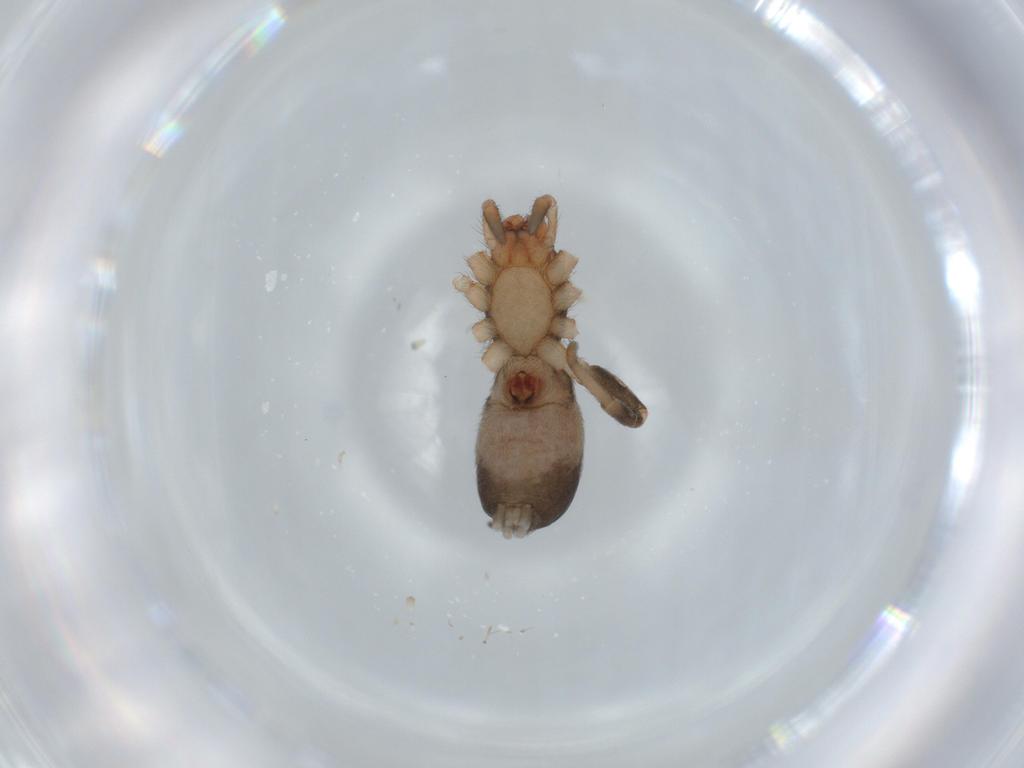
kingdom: Animalia
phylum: Arthropoda
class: Arachnida
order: Araneae
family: Gnaphosidae
